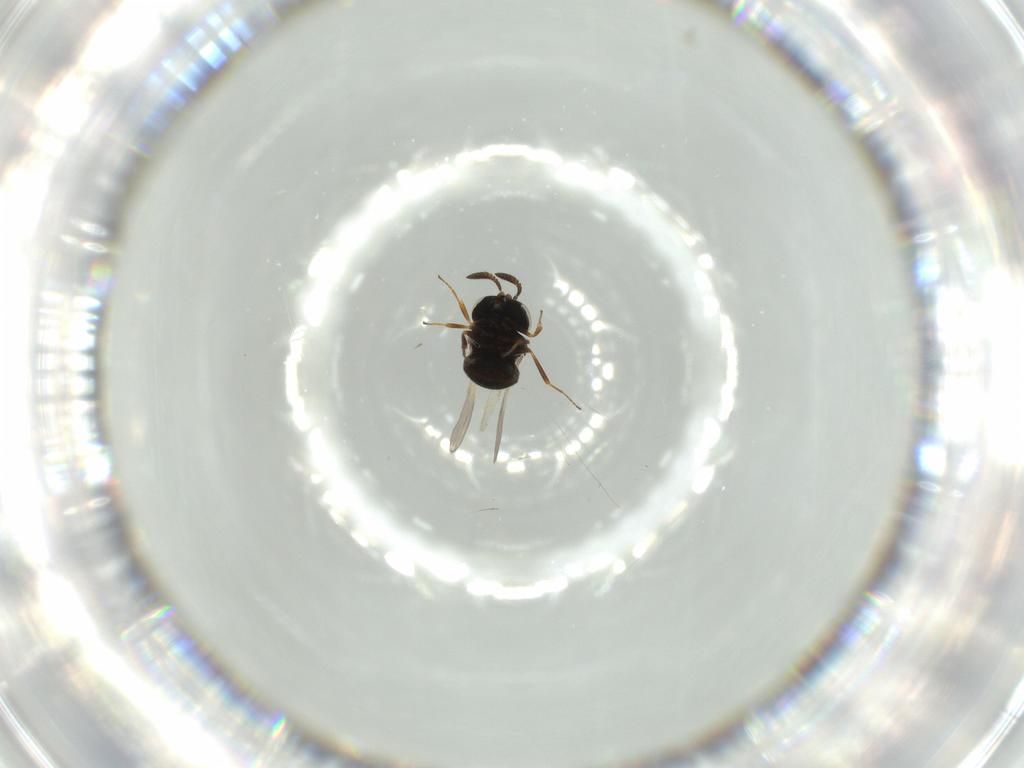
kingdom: Animalia
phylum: Arthropoda
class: Insecta
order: Hymenoptera
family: Scelionidae
